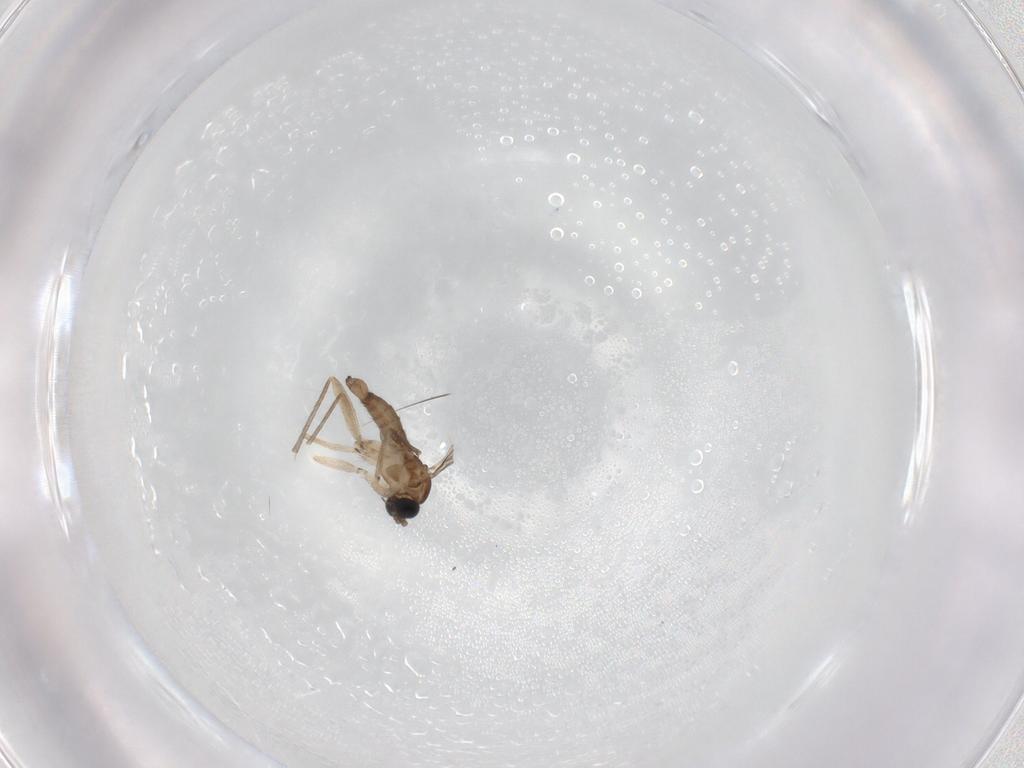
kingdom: Animalia
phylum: Arthropoda
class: Insecta
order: Diptera
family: Sciaridae
